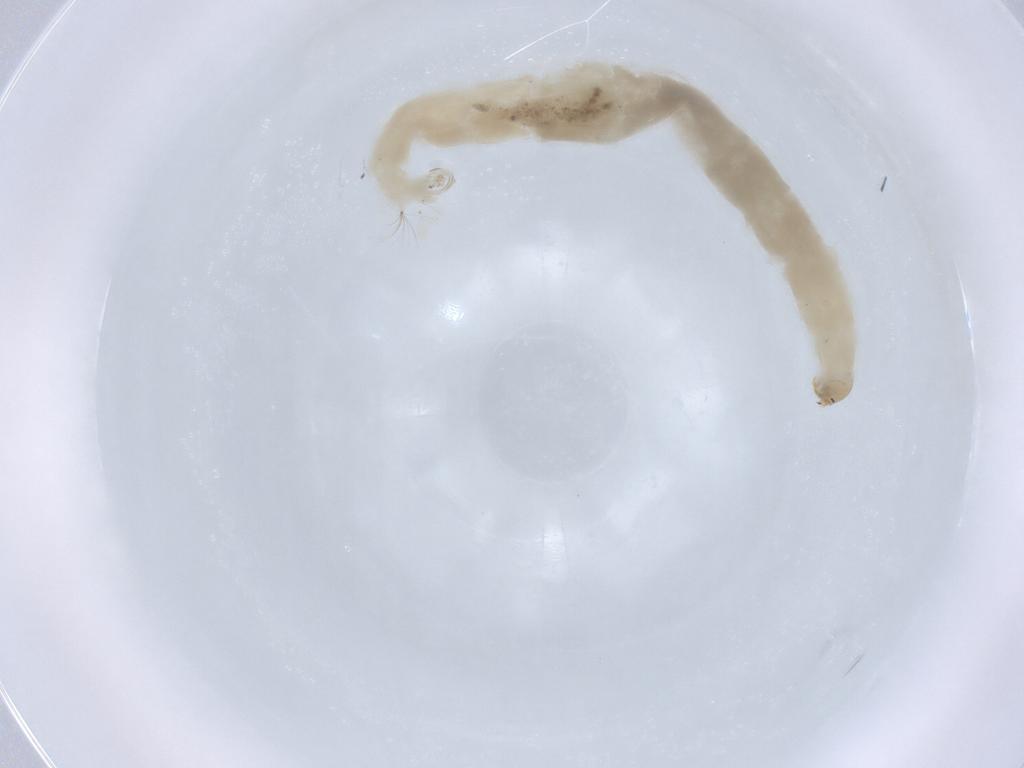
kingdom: Animalia
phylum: Arthropoda
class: Insecta
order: Diptera
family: Chironomidae
